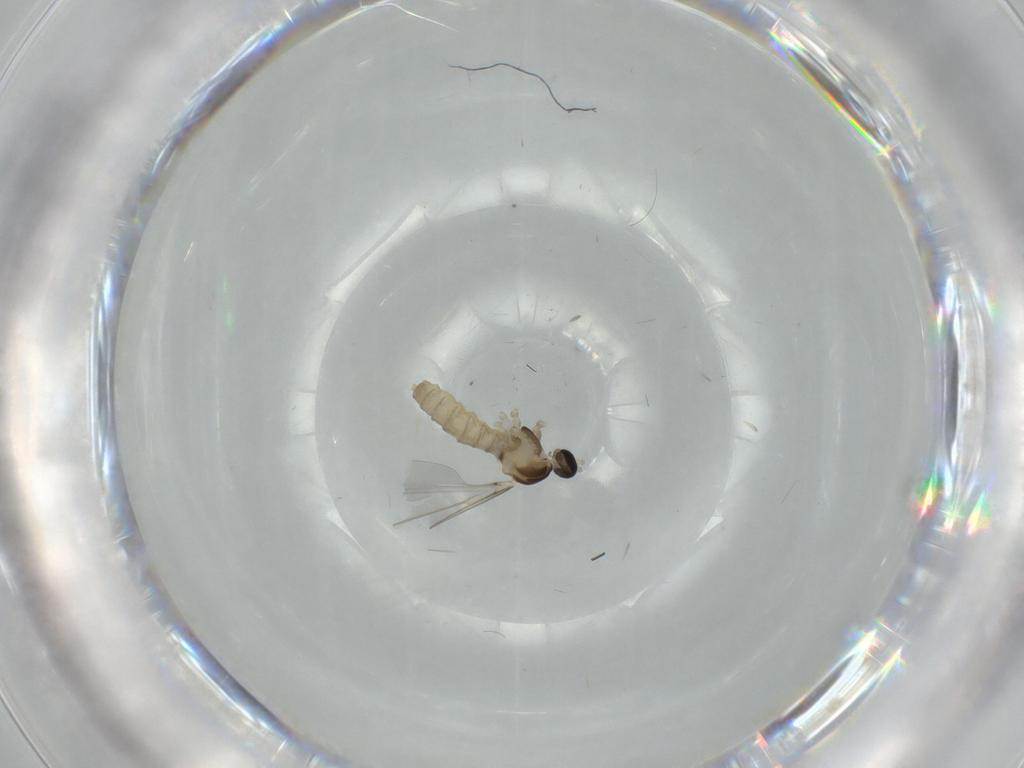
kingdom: Animalia
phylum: Arthropoda
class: Insecta
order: Diptera
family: Cecidomyiidae
